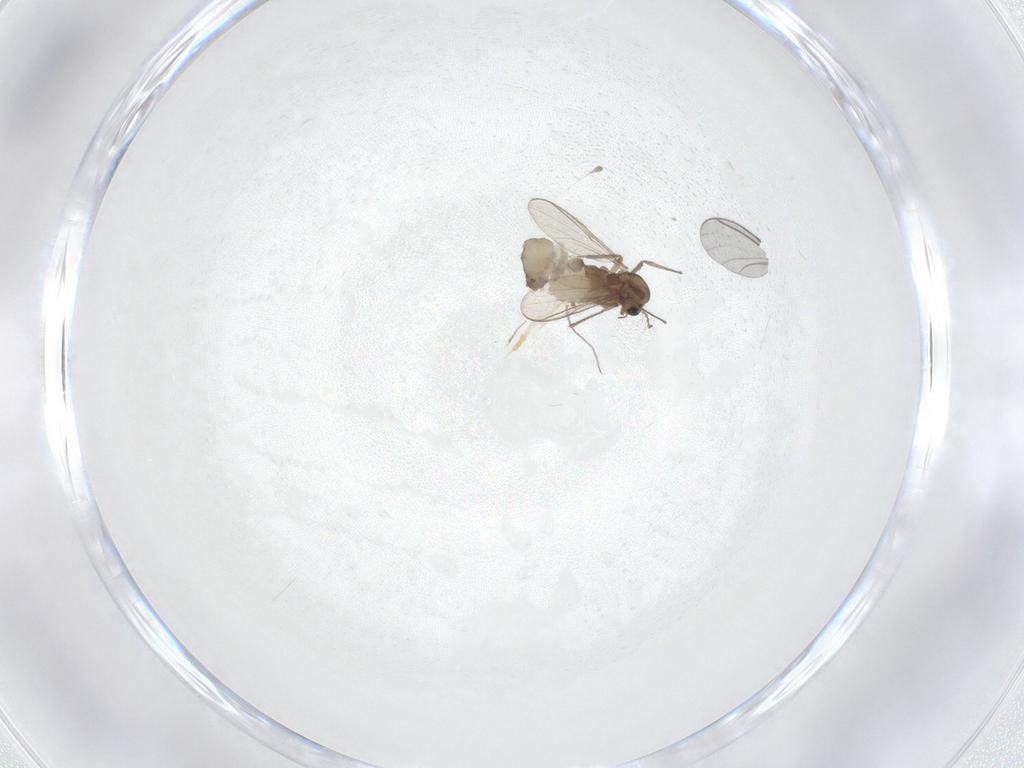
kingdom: Animalia
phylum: Arthropoda
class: Insecta
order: Diptera
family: Chironomidae
